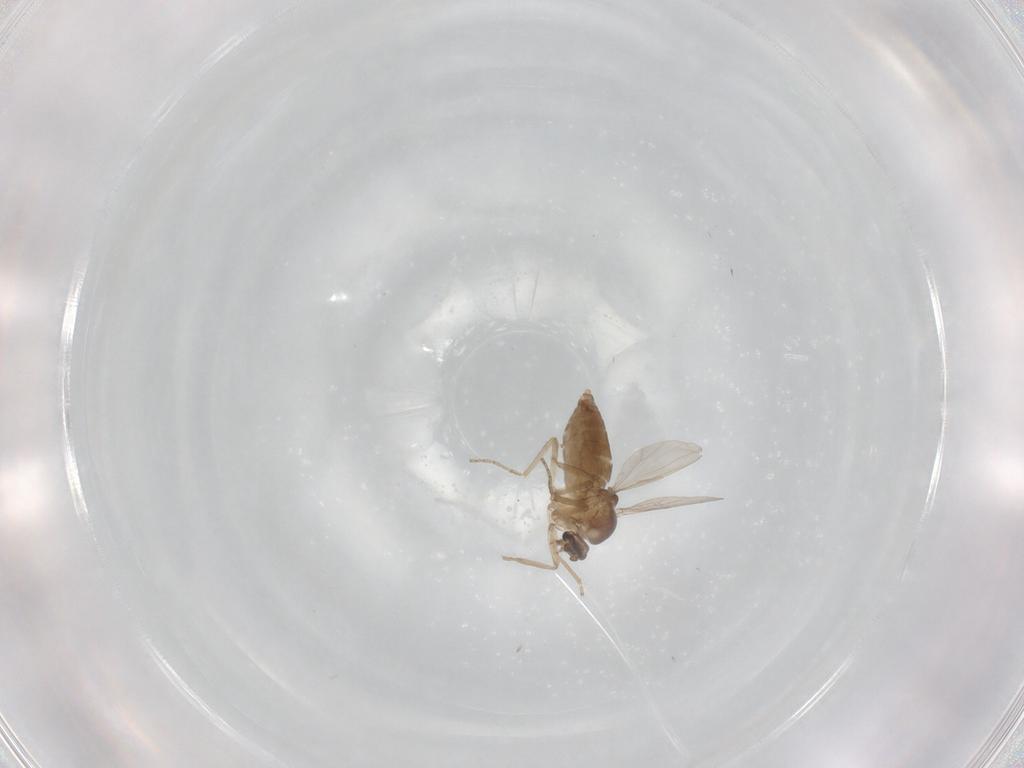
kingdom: Animalia
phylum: Arthropoda
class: Insecta
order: Diptera
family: Ceratopogonidae
